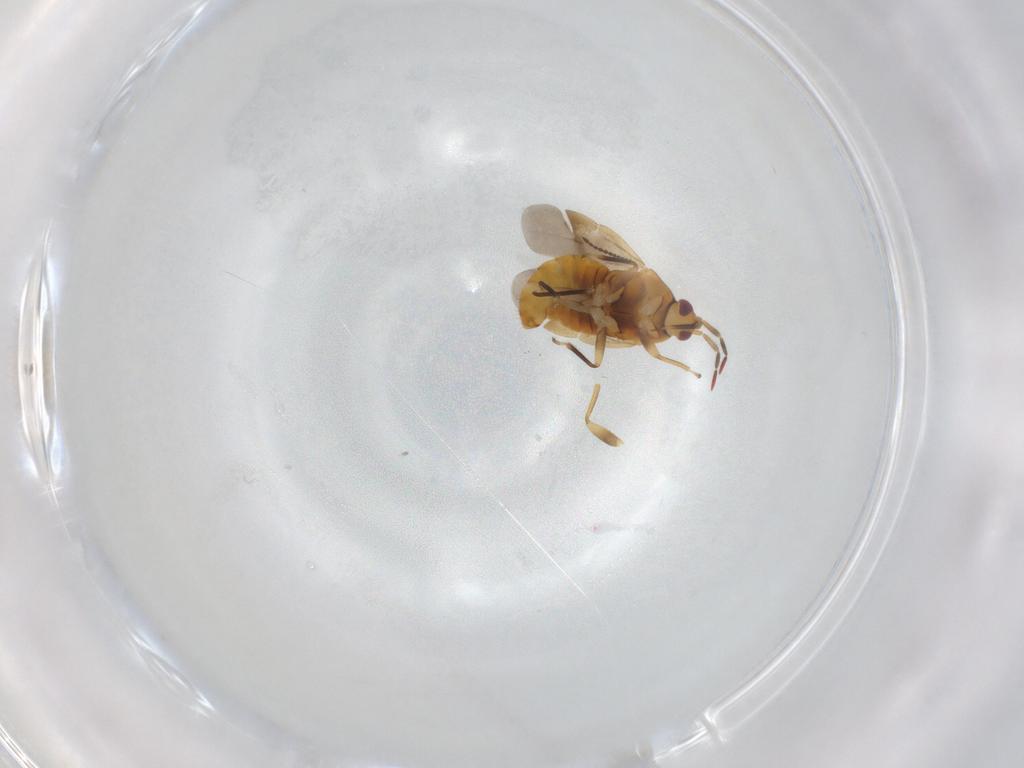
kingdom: Animalia
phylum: Arthropoda
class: Insecta
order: Hemiptera
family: Anthocoridae
